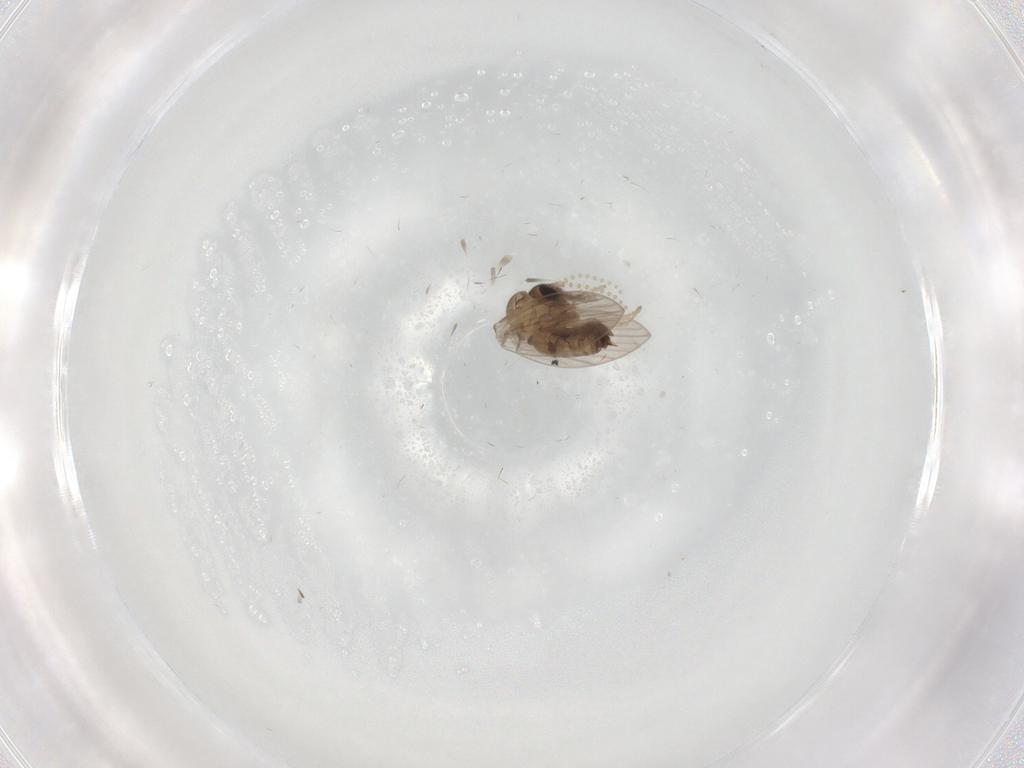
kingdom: Animalia
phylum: Arthropoda
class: Insecta
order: Diptera
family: Psychodidae
